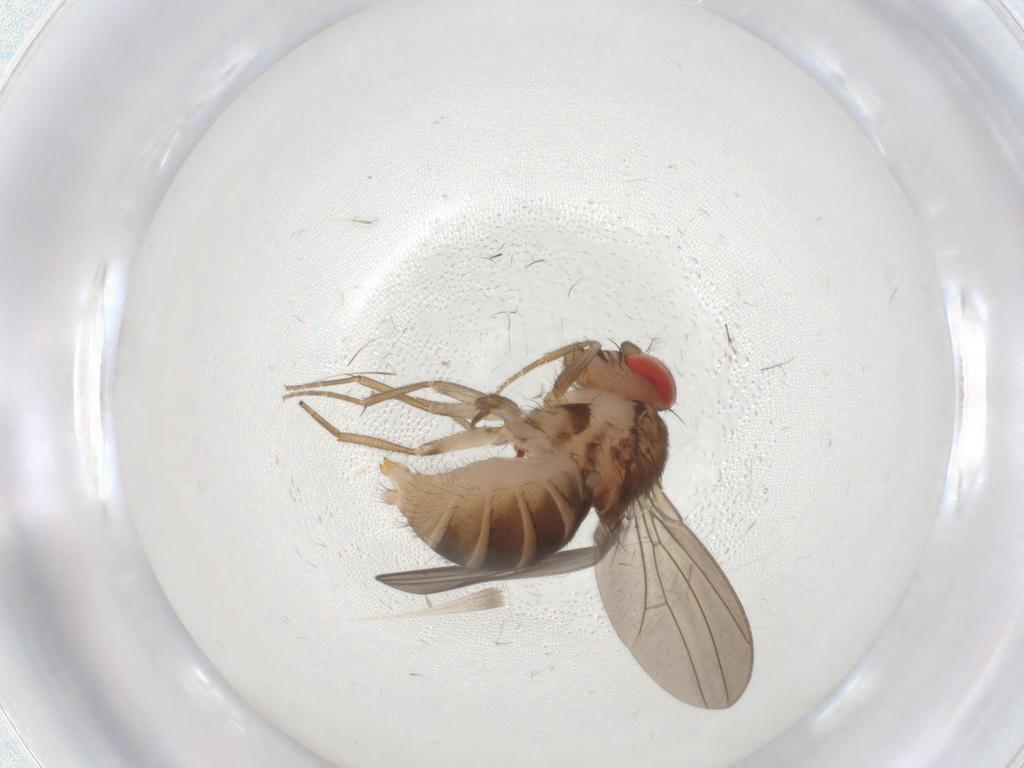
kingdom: Animalia
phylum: Arthropoda
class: Insecta
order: Diptera
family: Drosophilidae
